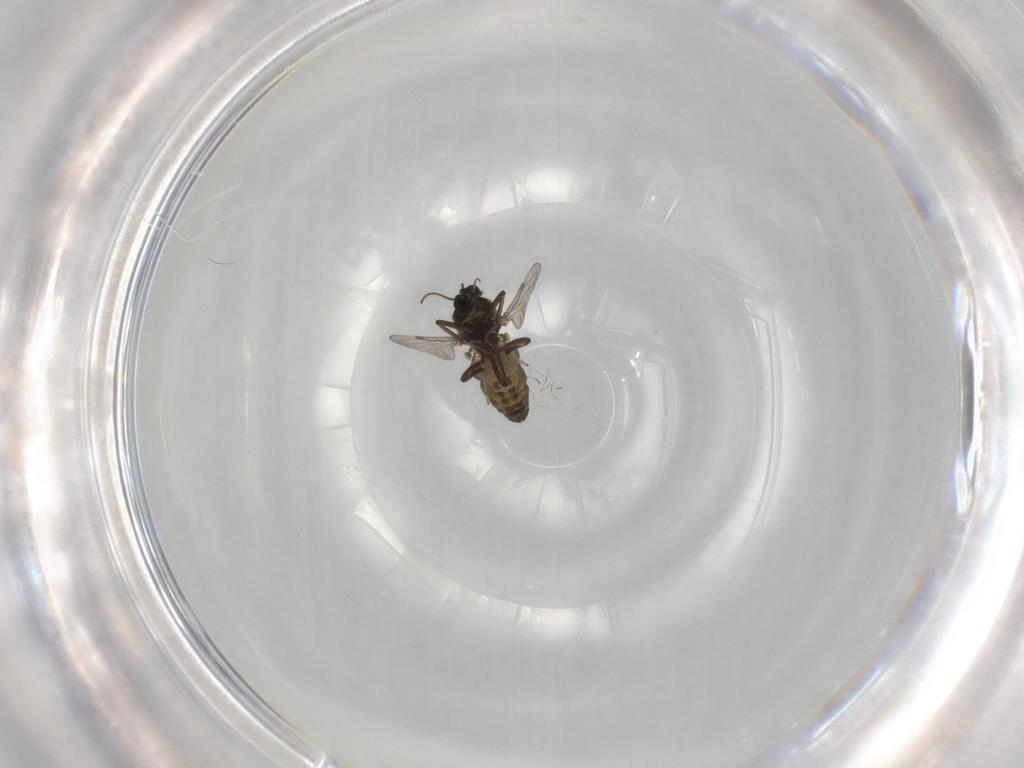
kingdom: Animalia
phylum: Arthropoda
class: Insecta
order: Diptera
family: Ceratopogonidae
